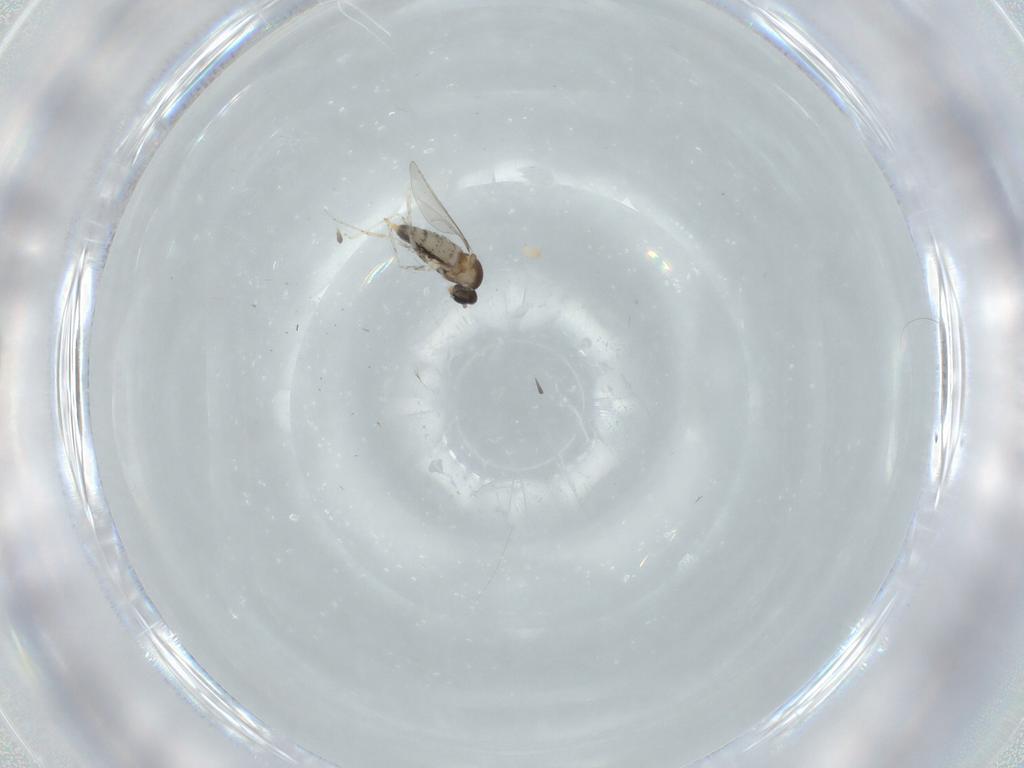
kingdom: Animalia
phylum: Arthropoda
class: Insecta
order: Diptera
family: Cecidomyiidae
